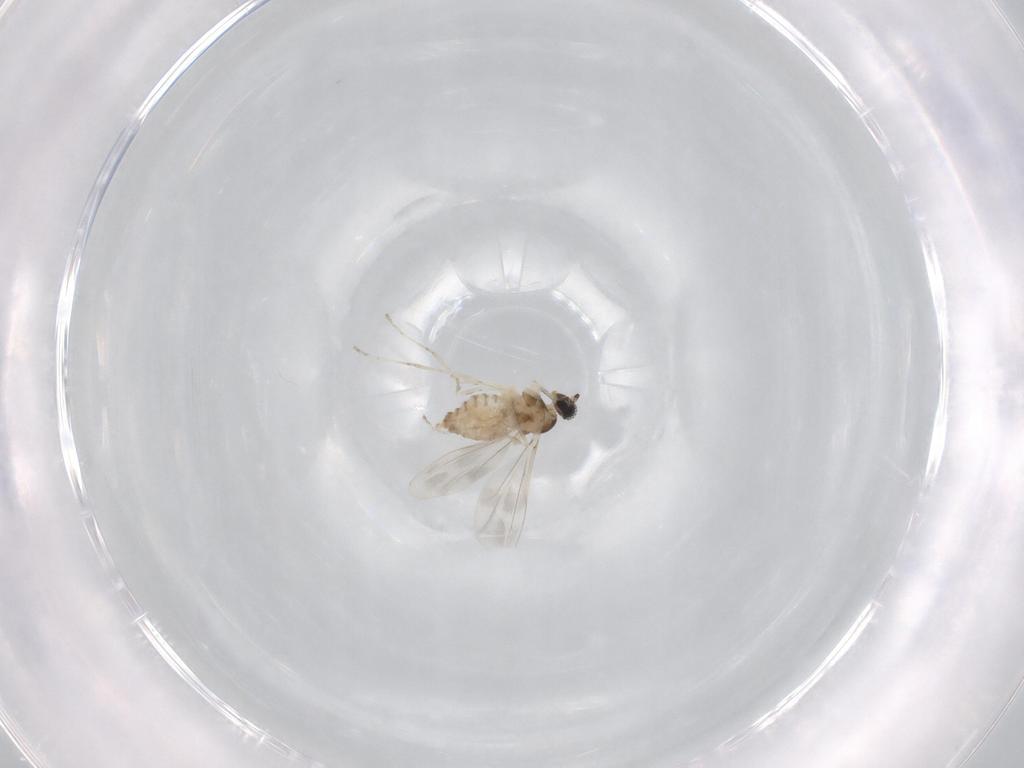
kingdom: Animalia
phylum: Arthropoda
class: Insecta
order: Diptera
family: Cecidomyiidae
